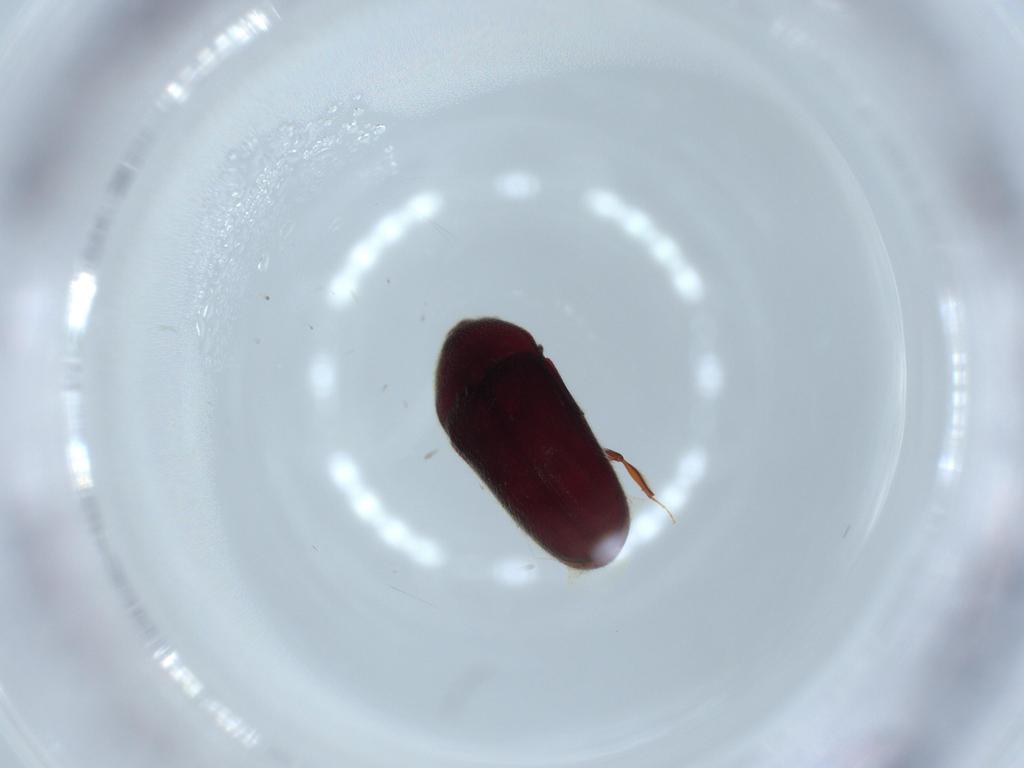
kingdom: Animalia
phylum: Arthropoda
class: Insecta
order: Coleoptera
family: Throscidae
